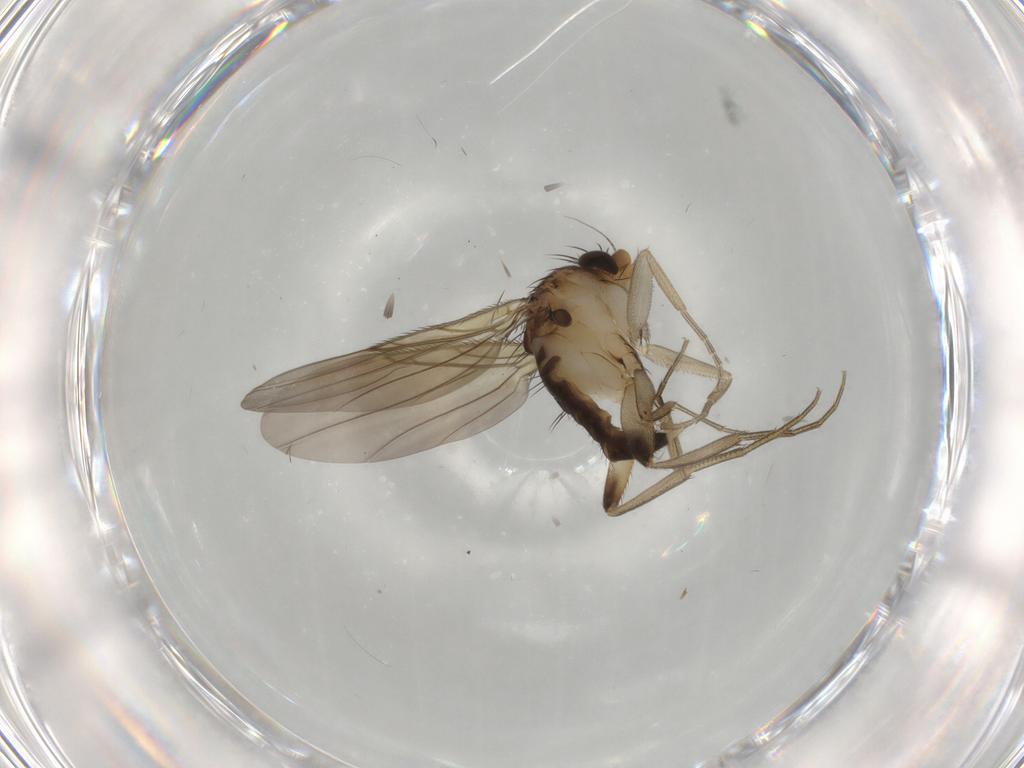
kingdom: Animalia
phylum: Arthropoda
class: Insecta
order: Diptera
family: Phoridae
